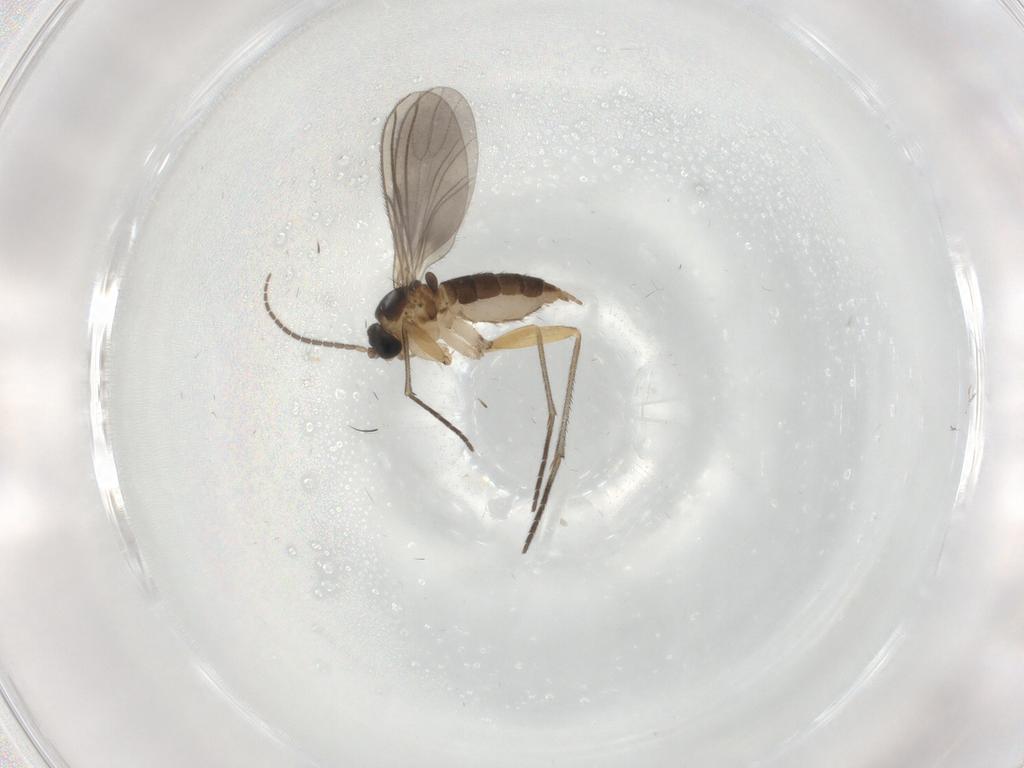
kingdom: Animalia
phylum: Arthropoda
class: Insecta
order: Diptera
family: Sciaridae
